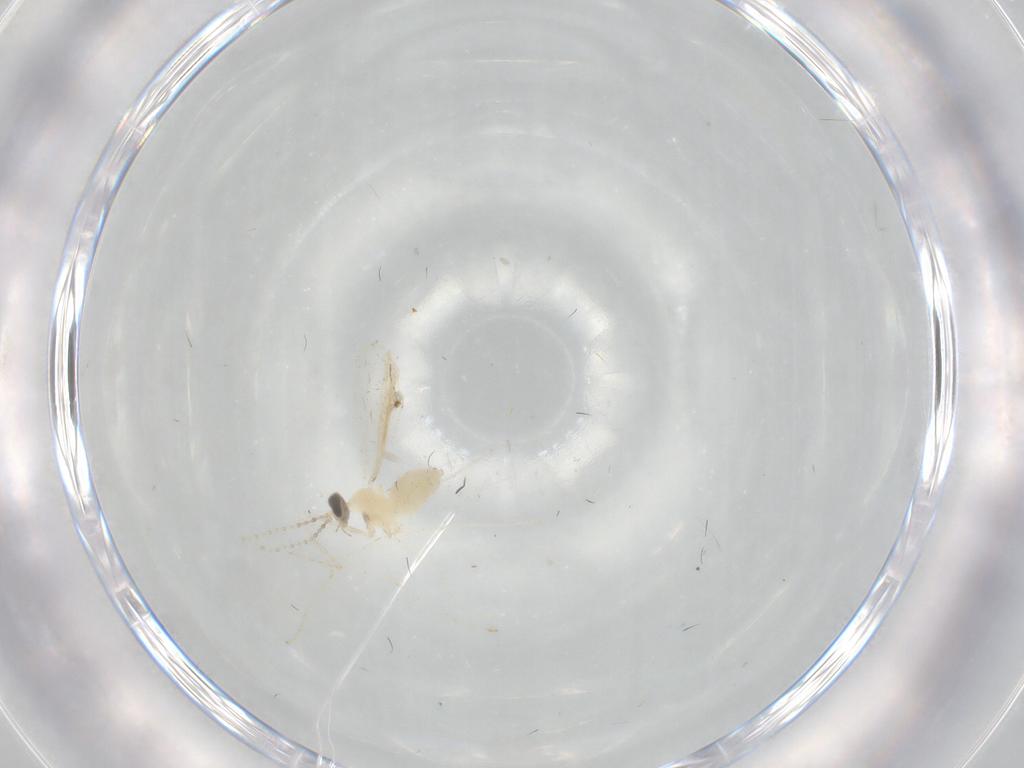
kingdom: Animalia
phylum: Arthropoda
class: Insecta
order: Diptera
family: Cecidomyiidae
